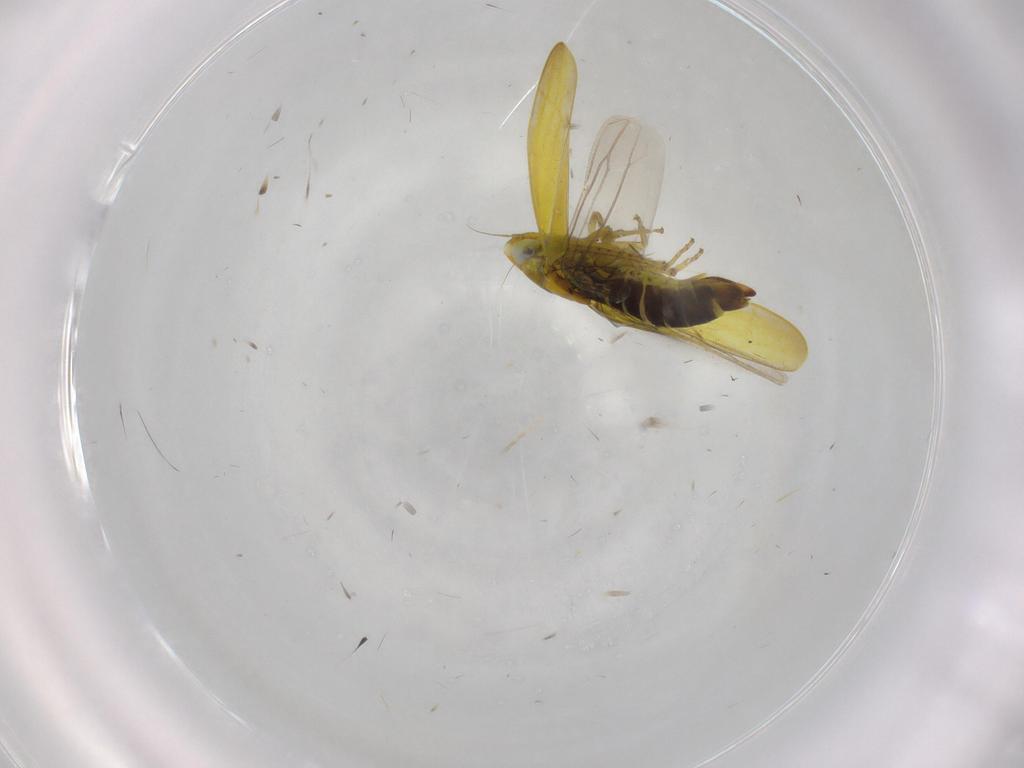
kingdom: Animalia
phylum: Arthropoda
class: Insecta
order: Hemiptera
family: Cicadellidae
